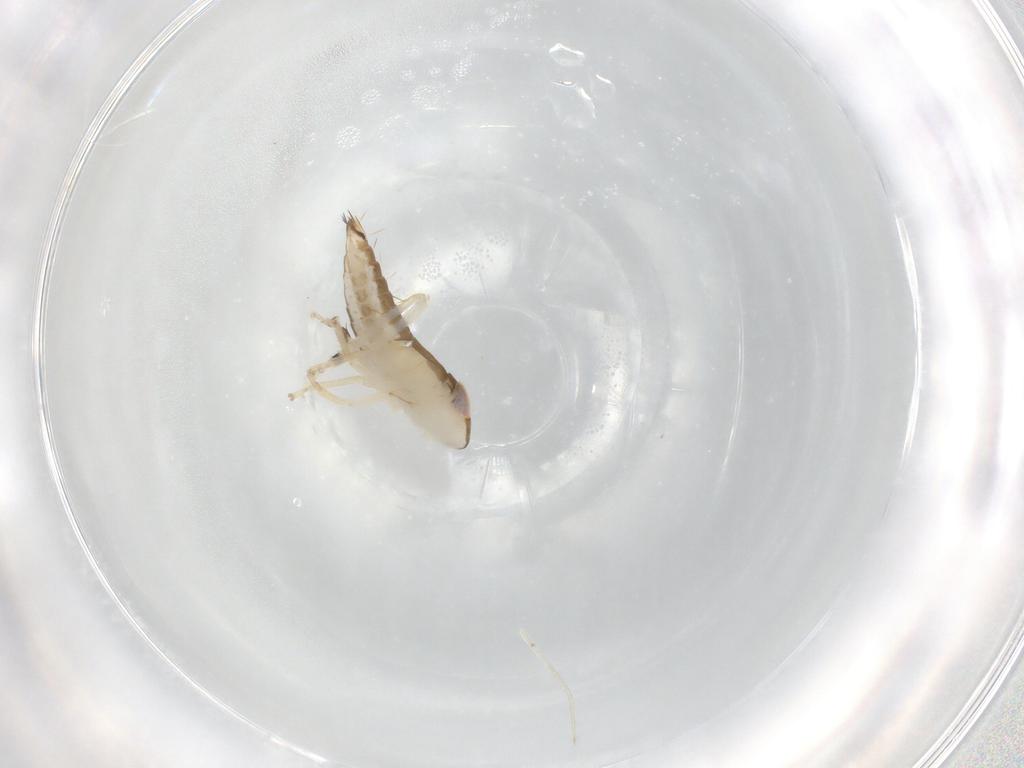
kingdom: Animalia
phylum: Arthropoda
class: Insecta
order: Hemiptera
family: Cicadellidae
